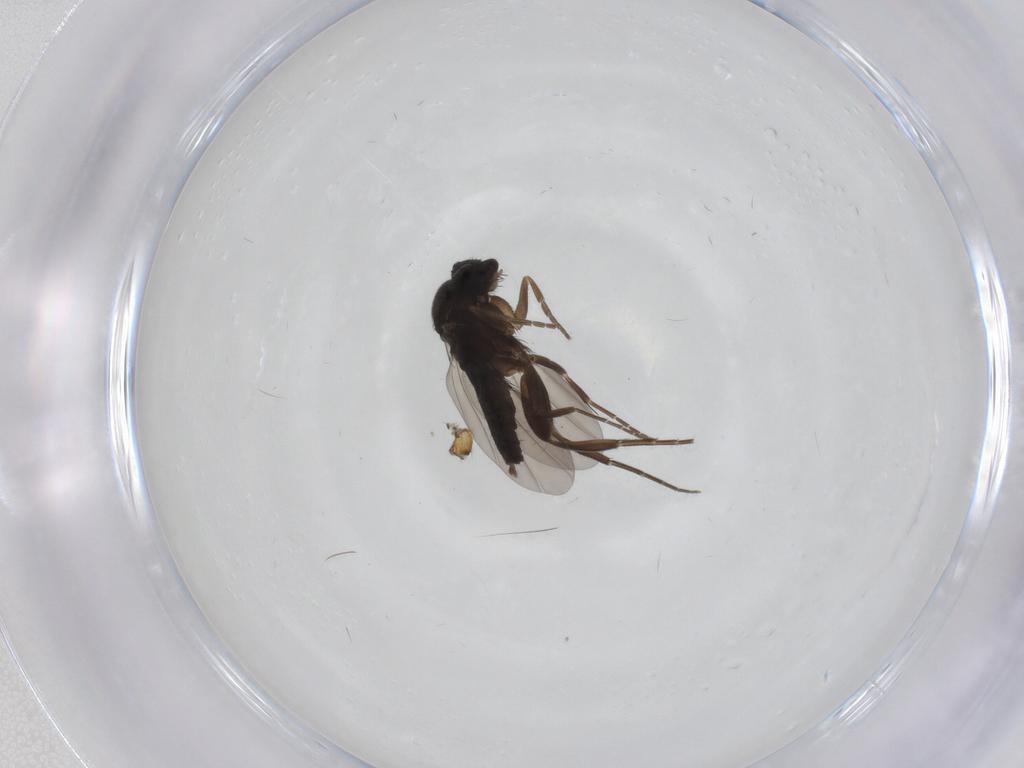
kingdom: Animalia
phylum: Arthropoda
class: Insecta
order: Diptera
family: Phoridae
